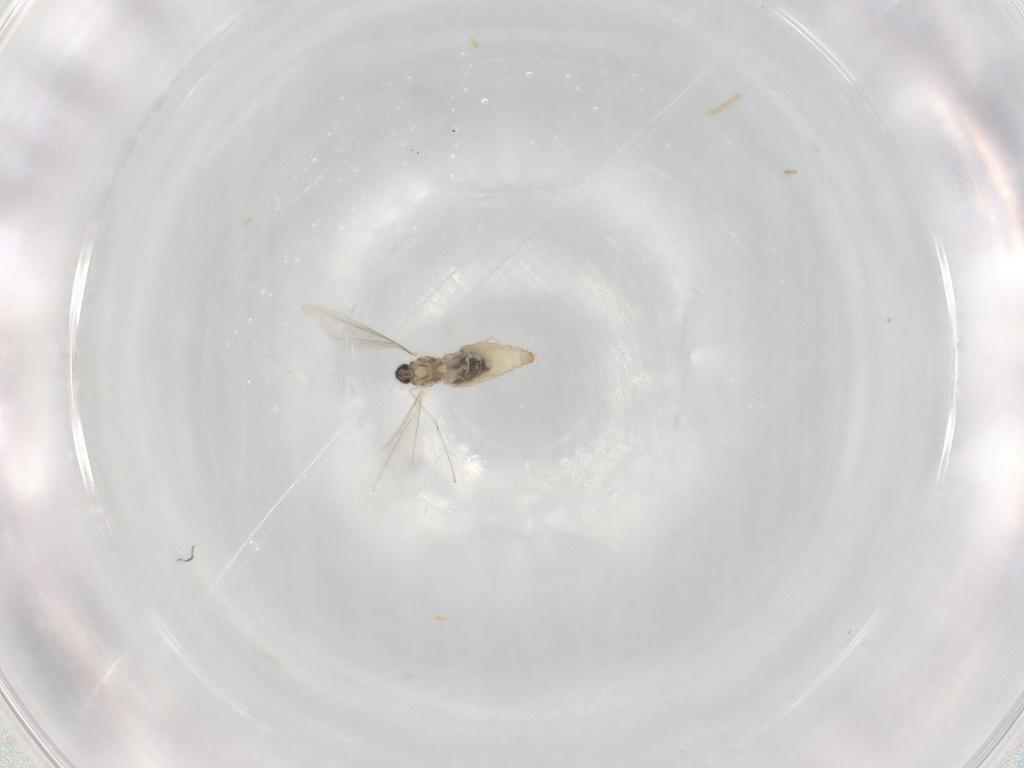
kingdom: Animalia
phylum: Arthropoda
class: Insecta
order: Diptera
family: Cecidomyiidae
